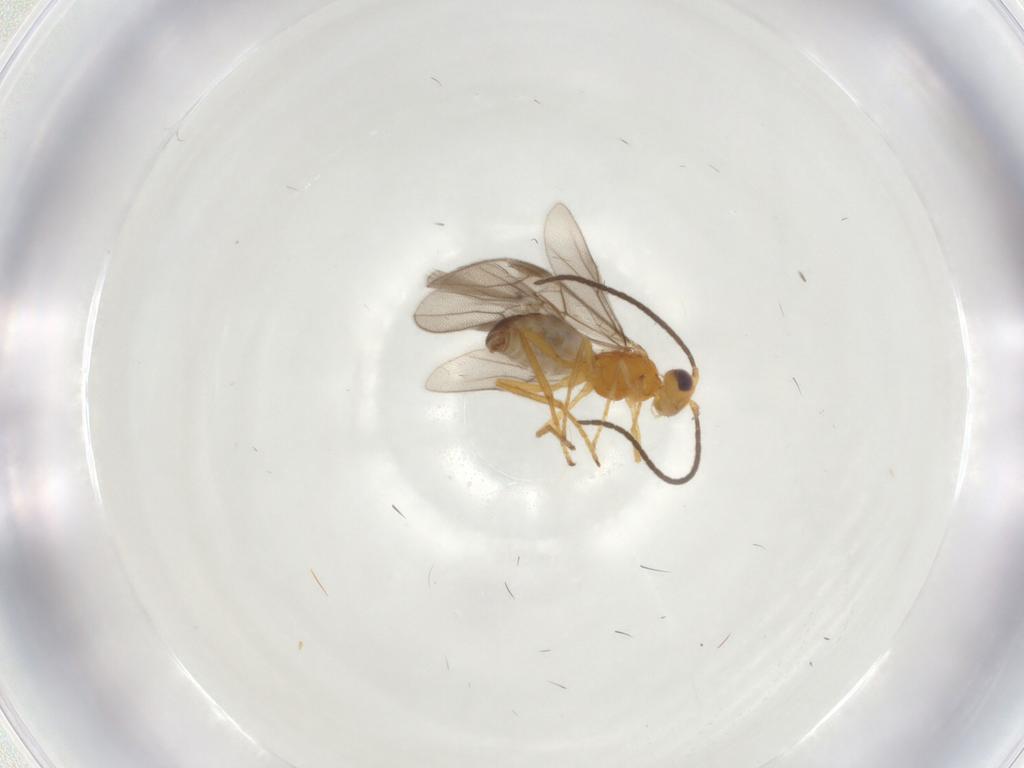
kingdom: Animalia
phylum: Arthropoda
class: Insecta
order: Hymenoptera
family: Braconidae
